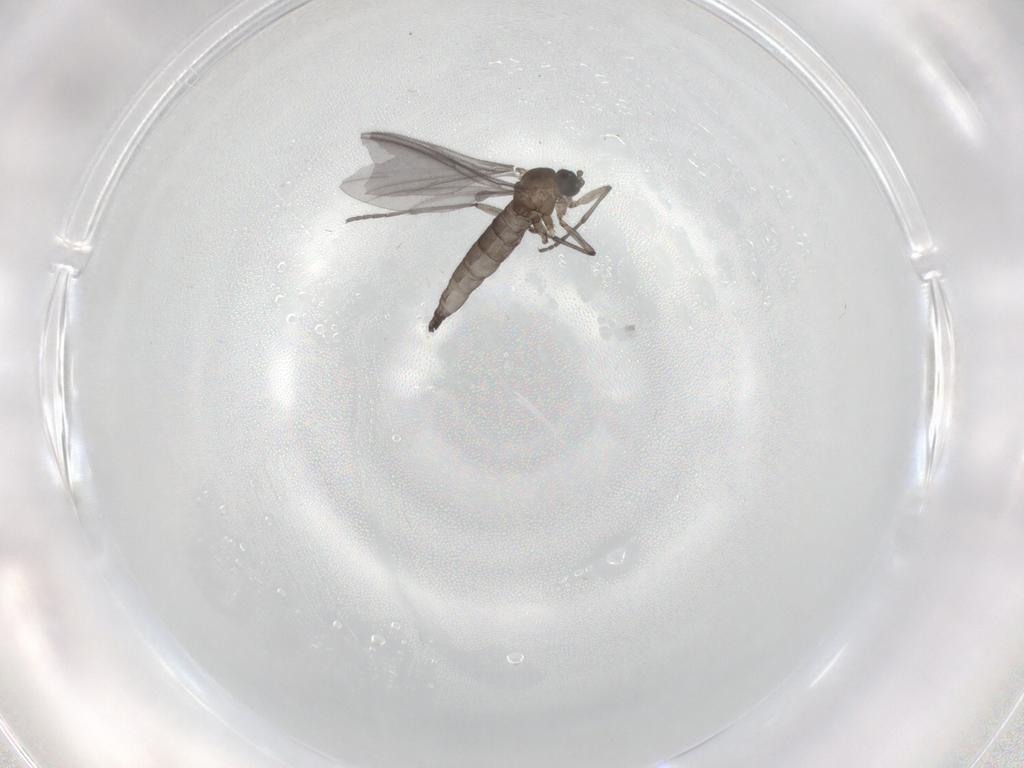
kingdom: Animalia
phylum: Arthropoda
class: Insecta
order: Diptera
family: Sciaridae
